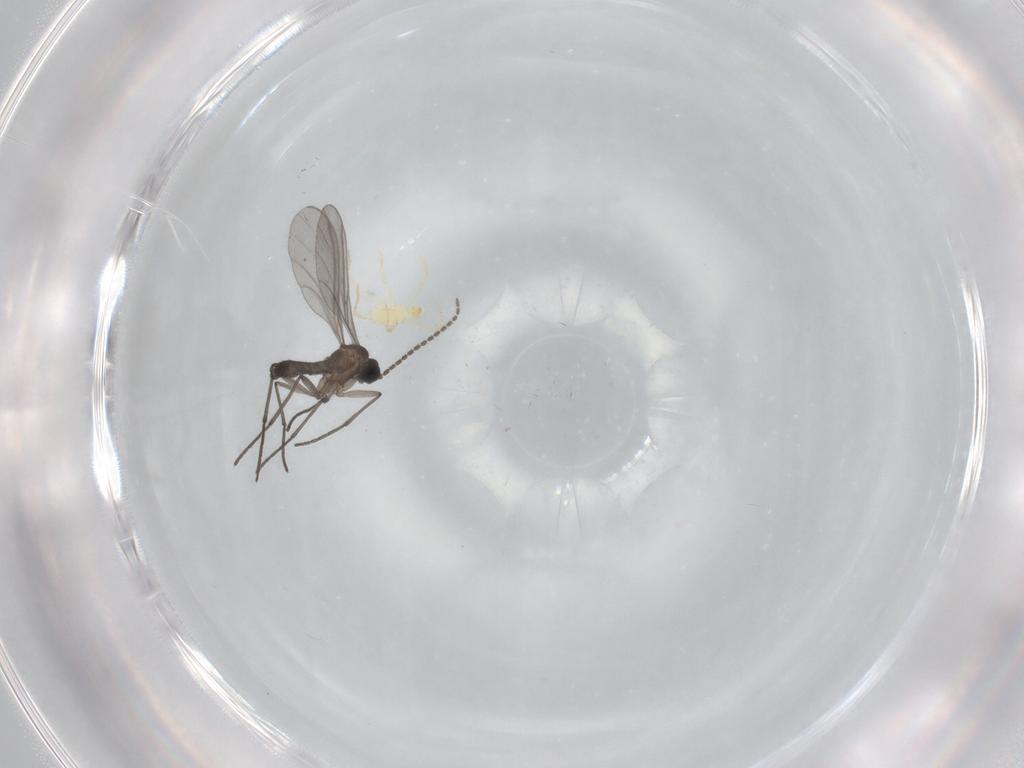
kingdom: Animalia
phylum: Arthropoda
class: Insecta
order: Diptera
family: Sciaridae
